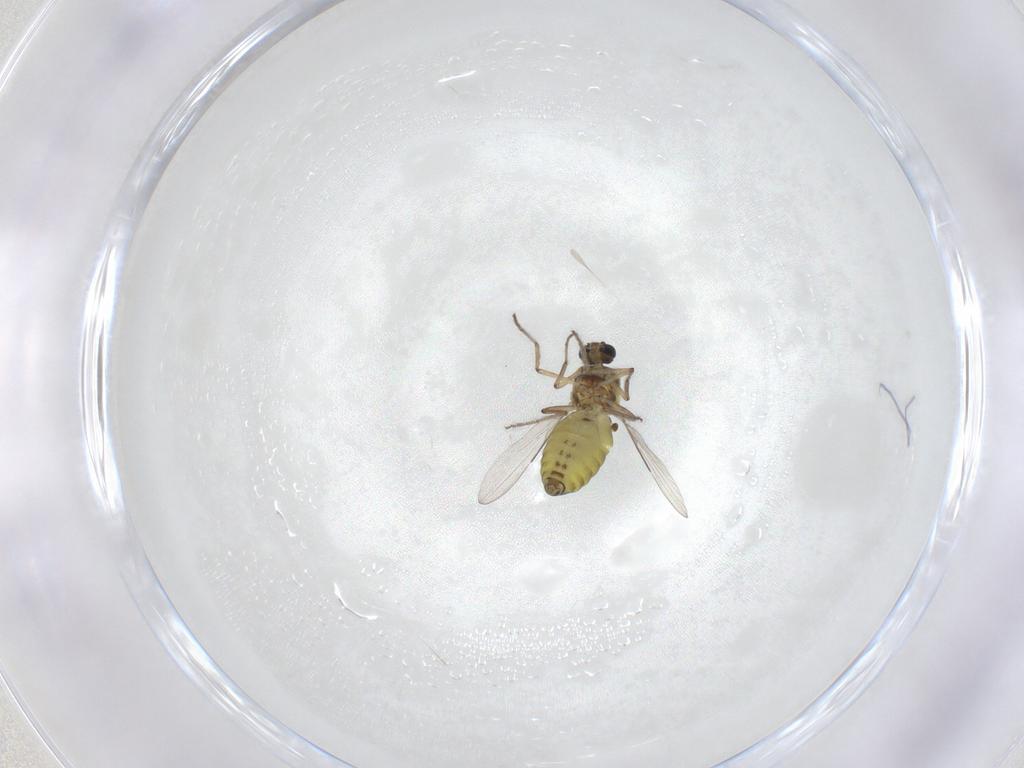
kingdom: Animalia
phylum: Arthropoda
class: Insecta
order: Diptera
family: Ceratopogonidae
